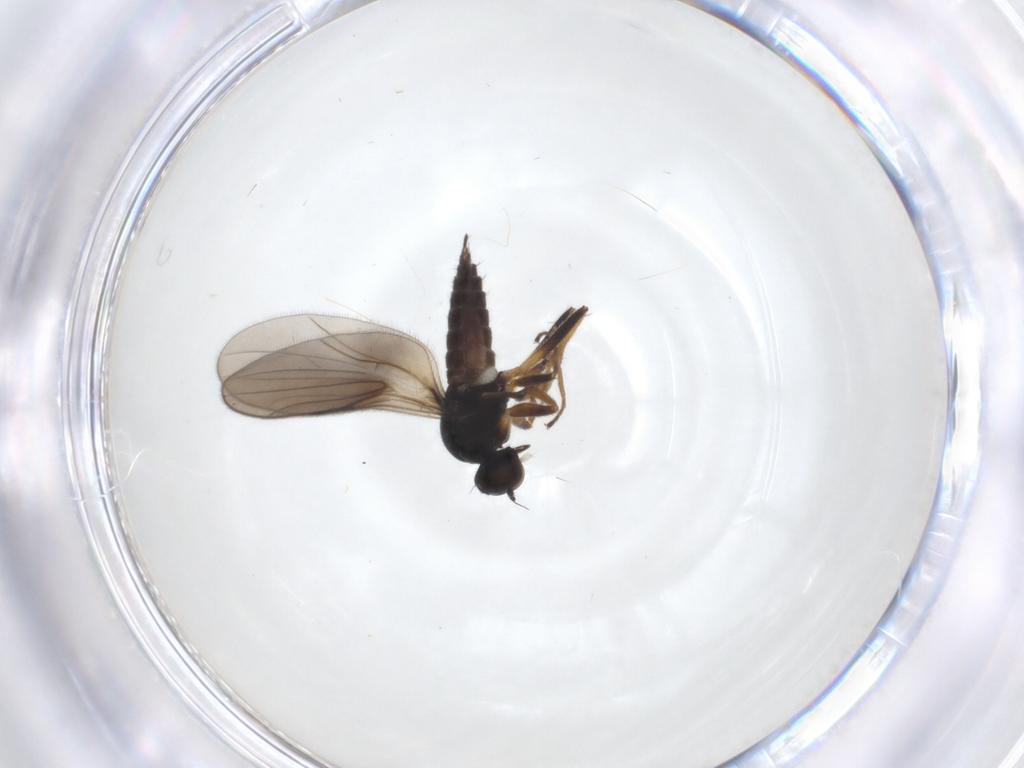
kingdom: Animalia
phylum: Arthropoda
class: Insecta
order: Diptera
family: Hybotidae
